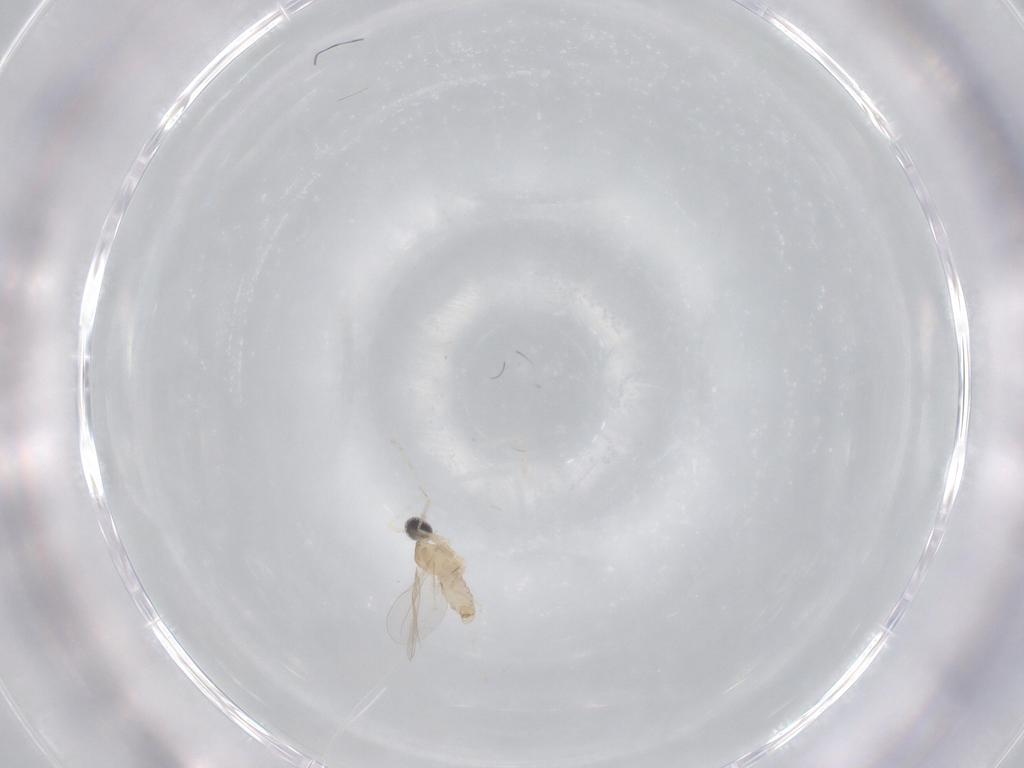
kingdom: Animalia
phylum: Arthropoda
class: Insecta
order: Diptera
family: Cecidomyiidae
